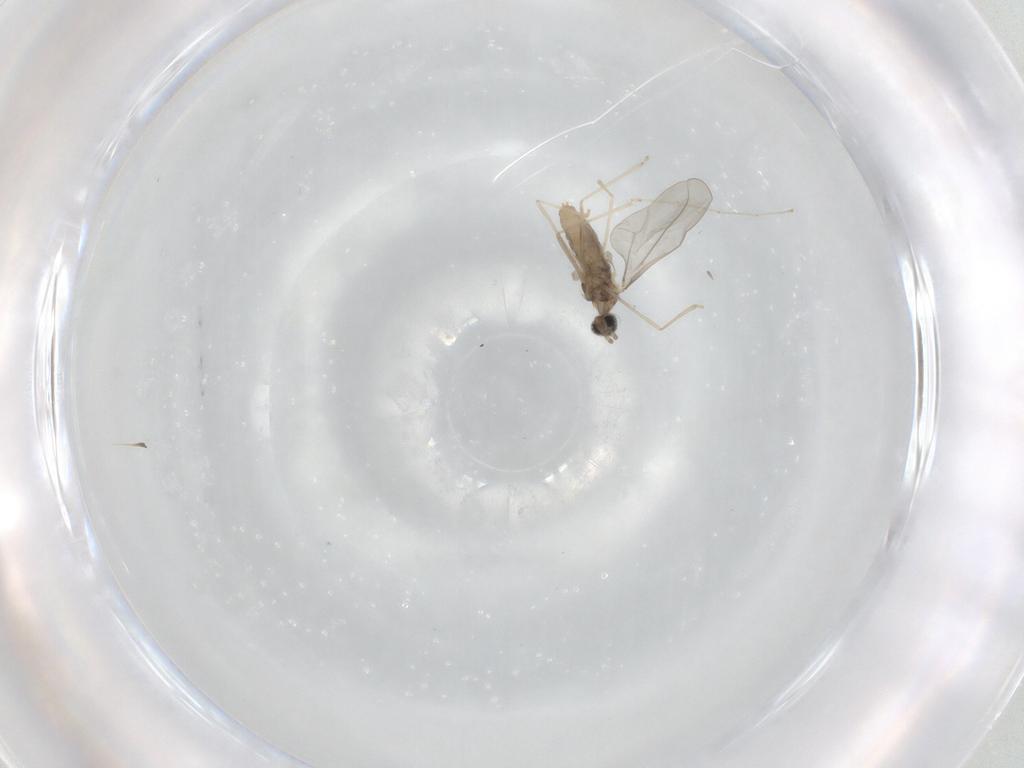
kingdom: Animalia
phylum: Arthropoda
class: Insecta
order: Diptera
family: Cecidomyiidae
